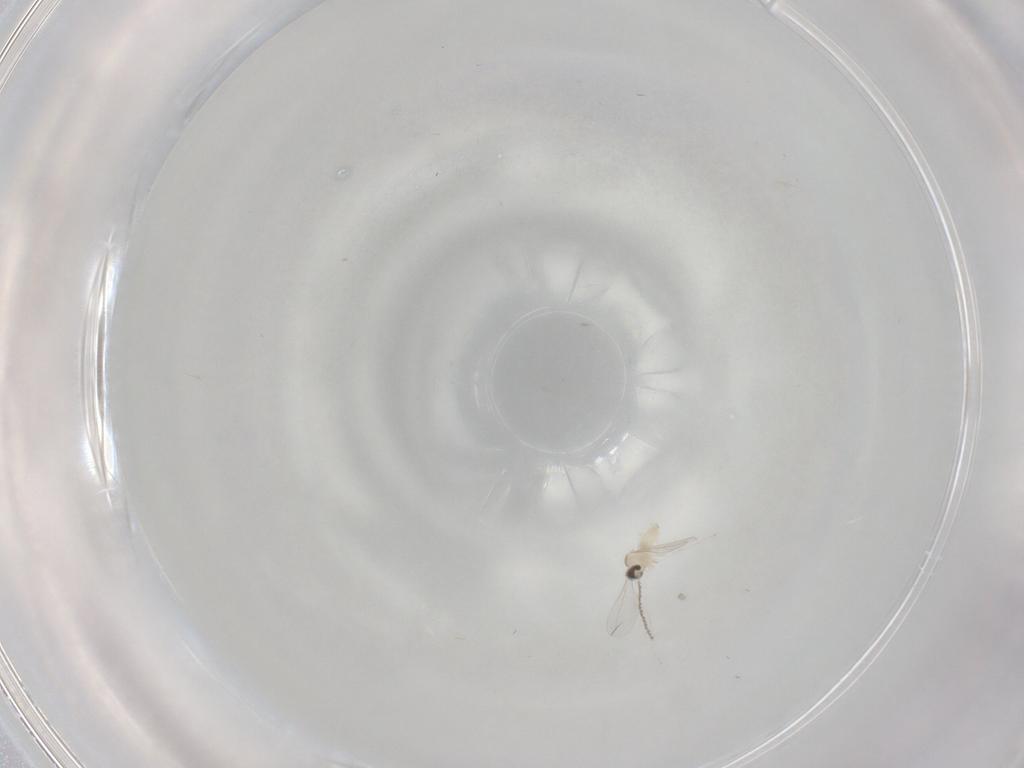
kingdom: Animalia
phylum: Arthropoda
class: Insecta
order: Diptera
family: Cecidomyiidae
